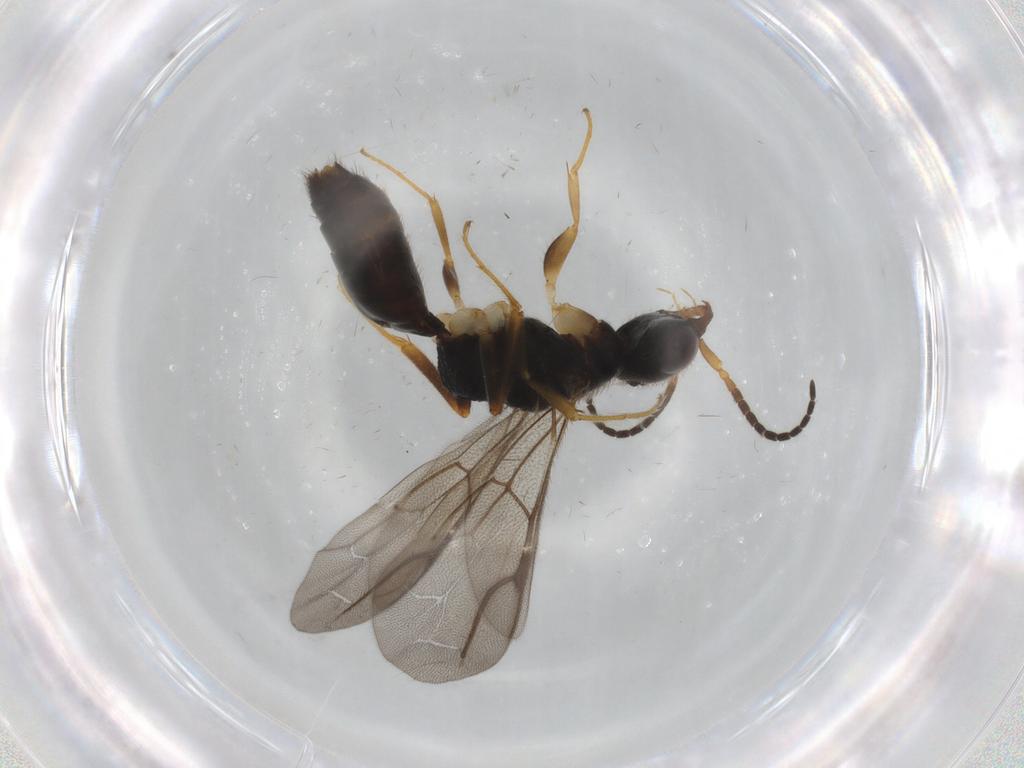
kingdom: Animalia
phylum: Arthropoda
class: Insecta
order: Hymenoptera
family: Bethylidae
